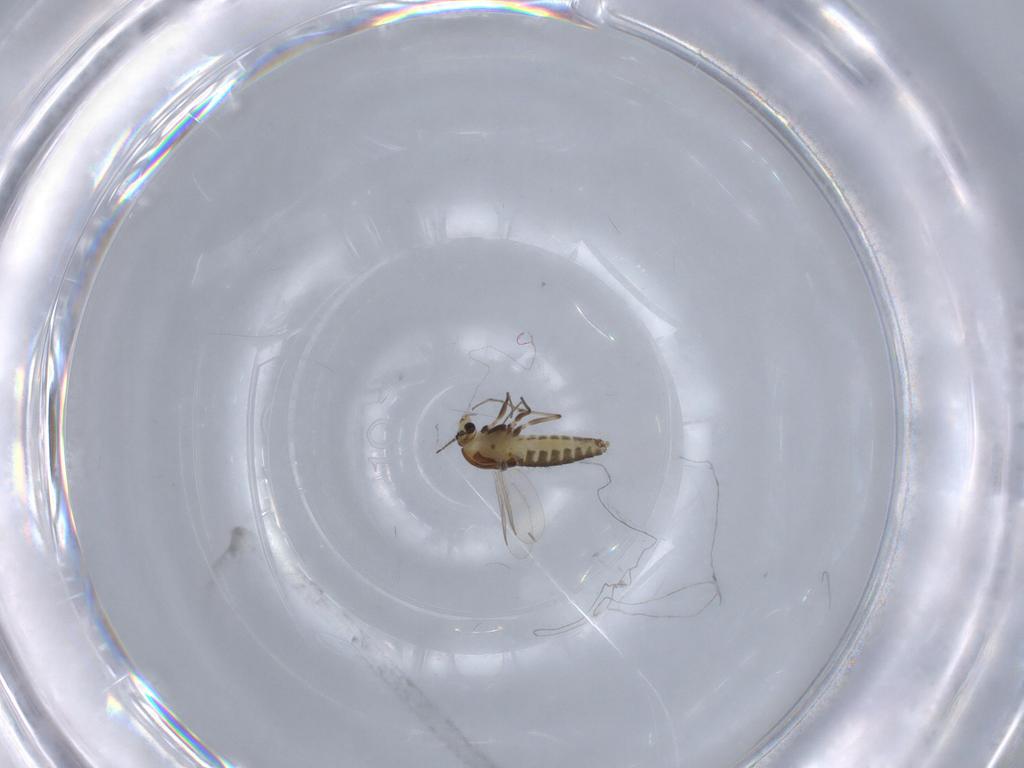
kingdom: Animalia
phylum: Arthropoda
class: Insecta
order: Diptera
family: Chironomidae
